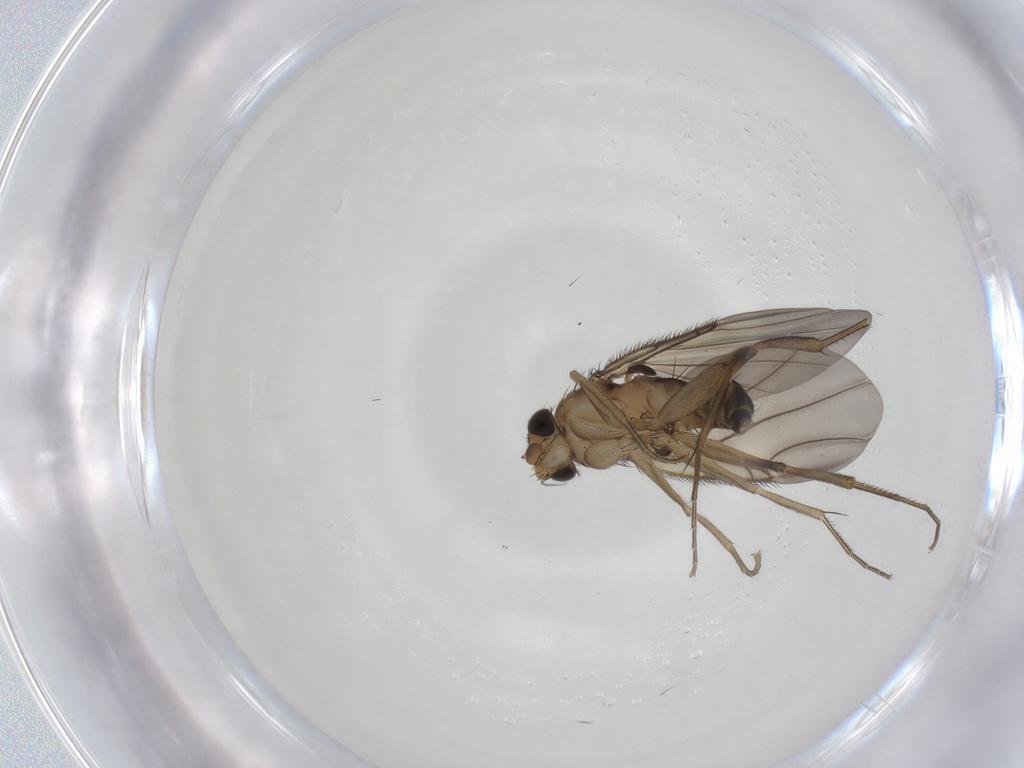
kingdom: Animalia
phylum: Arthropoda
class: Insecta
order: Diptera
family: Phoridae
